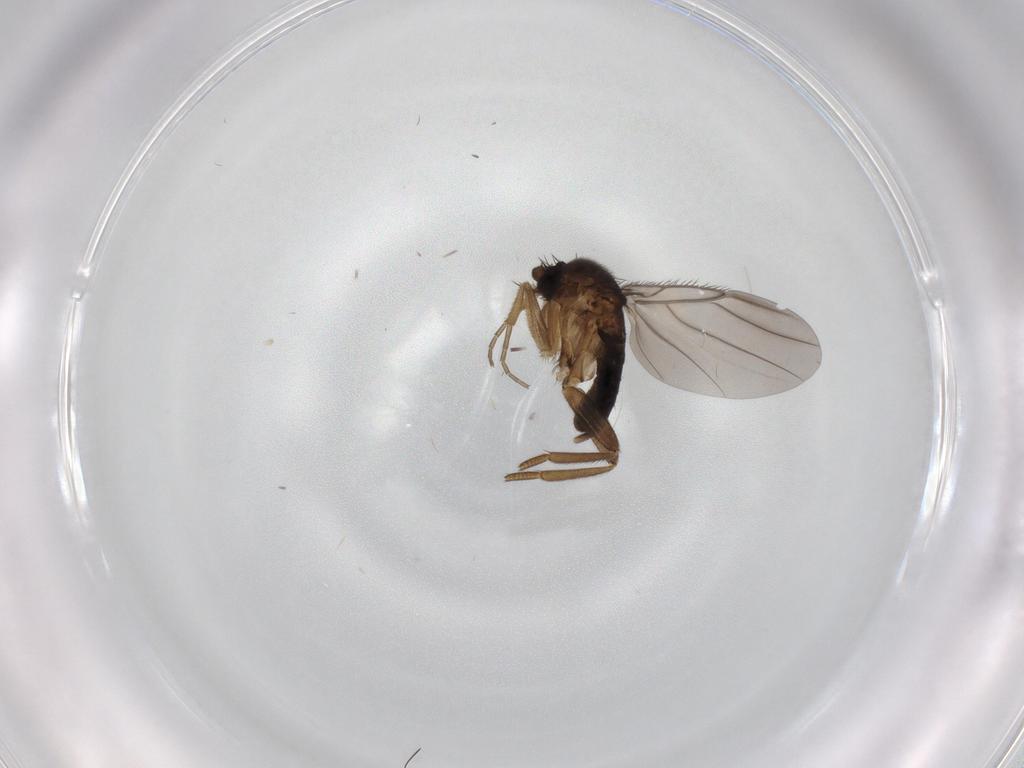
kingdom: Animalia
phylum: Arthropoda
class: Insecta
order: Diptera
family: Cecidomyiidae
